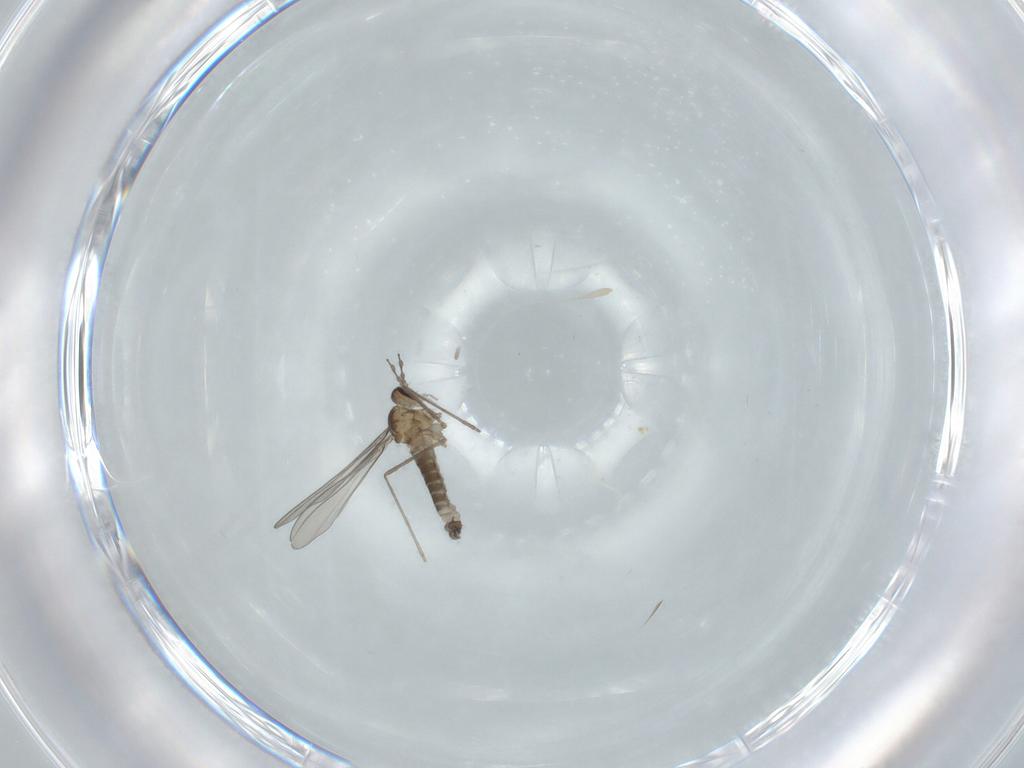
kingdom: Animalia
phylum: Arthropoda
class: Insecta
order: Diptera
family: Cecidomyiidae
